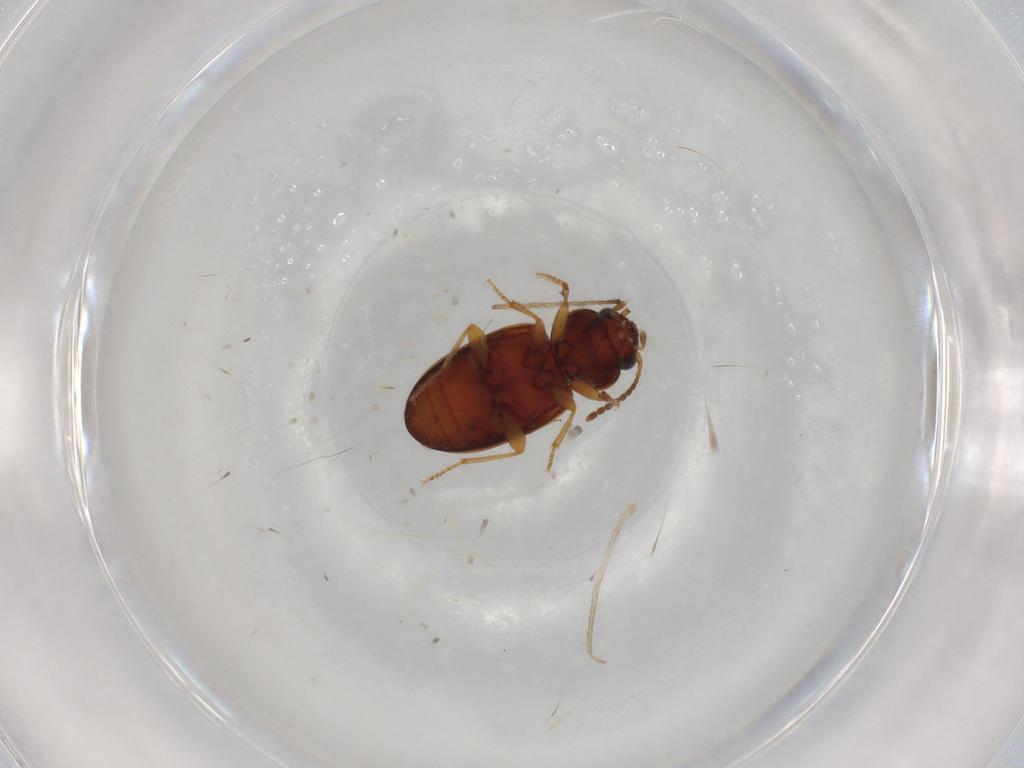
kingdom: Animalia
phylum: Arthropoda
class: Insecta
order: Coleoptera
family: Carabidae
